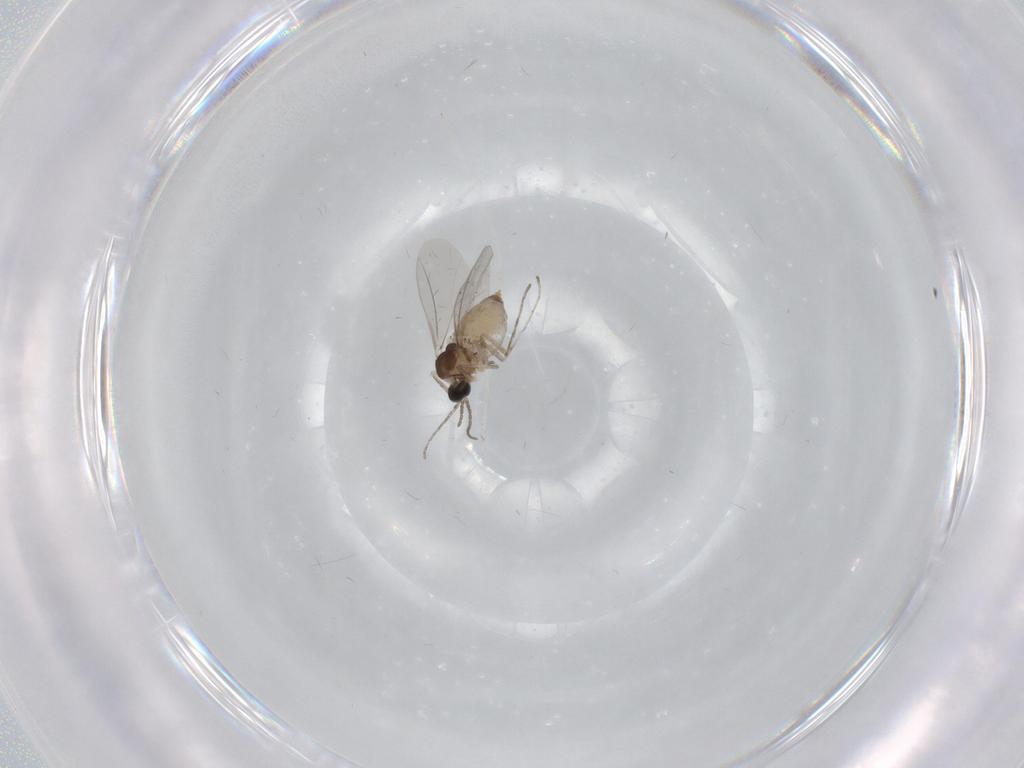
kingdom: Animalia
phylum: Arthropoda
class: Insecta
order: Diptera
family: Cecidomyiidae
